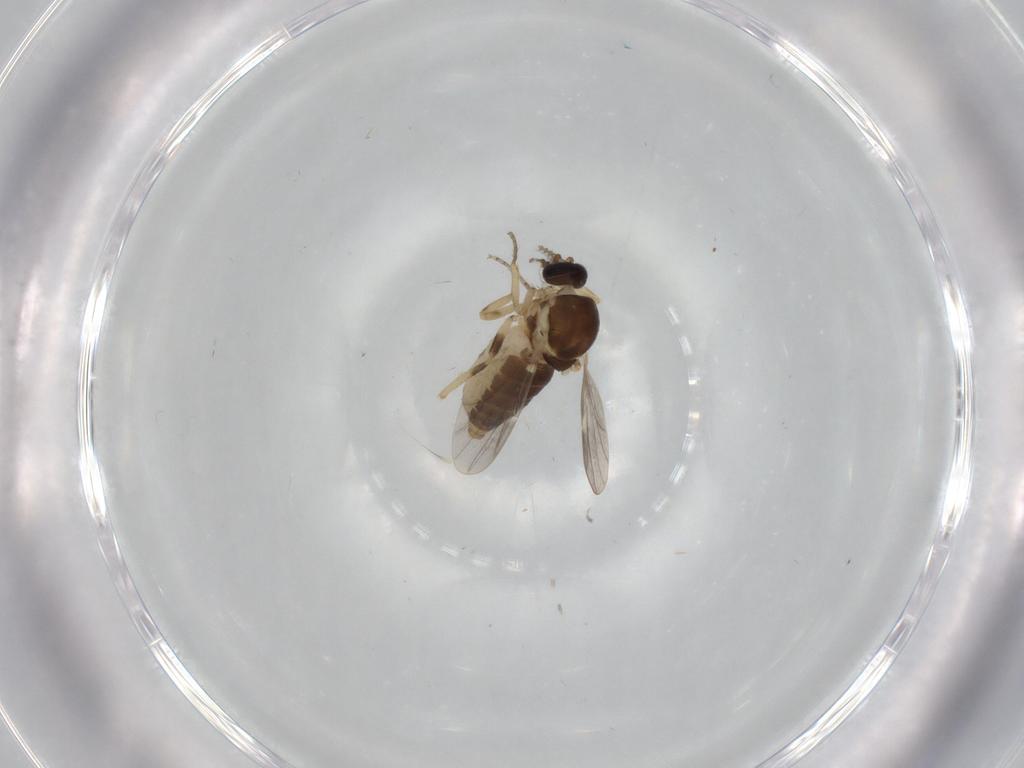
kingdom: Animalia
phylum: Arthropoda
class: Insecta
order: Diptera
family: Ceratopogonidae
